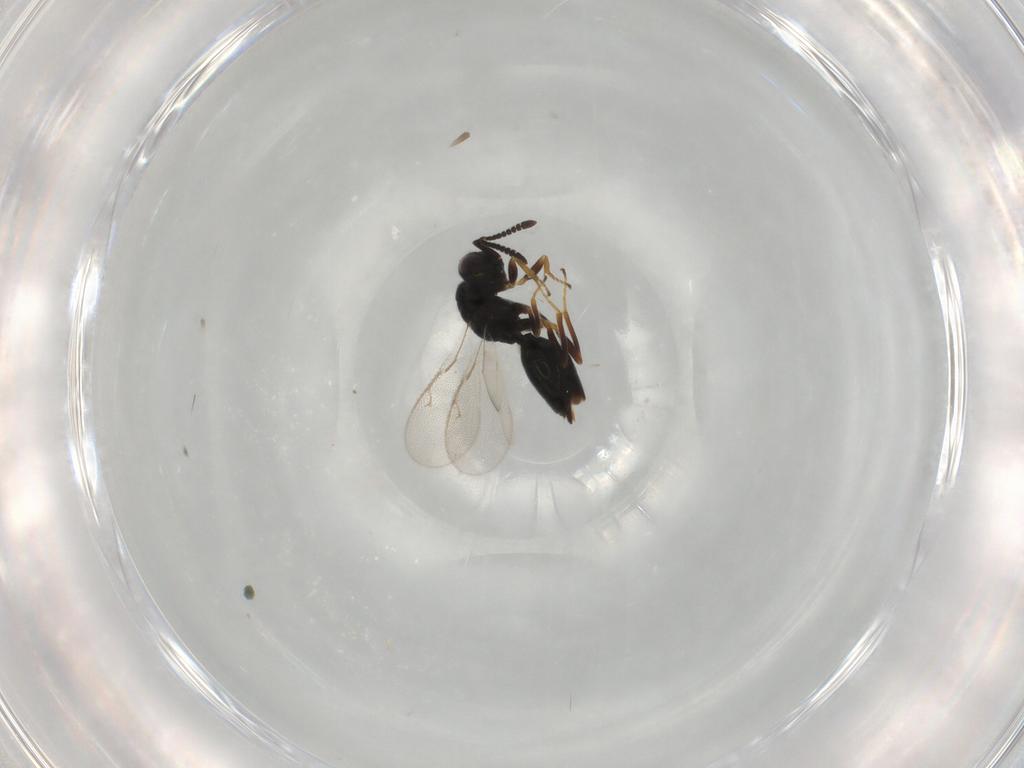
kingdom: Animalia
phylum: Arthropoda
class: Insecta
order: Hymenoptera
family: Pteromalidae
